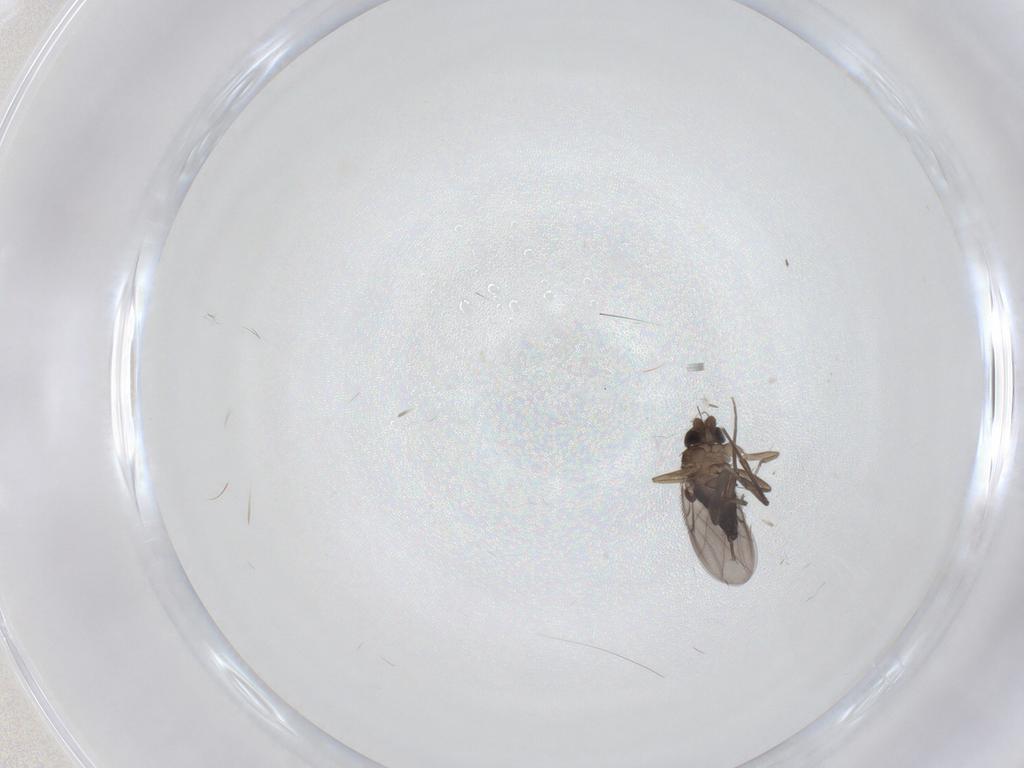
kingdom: Animalia
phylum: Arthropoda
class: Insecta
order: Diptera
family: Phoridae
